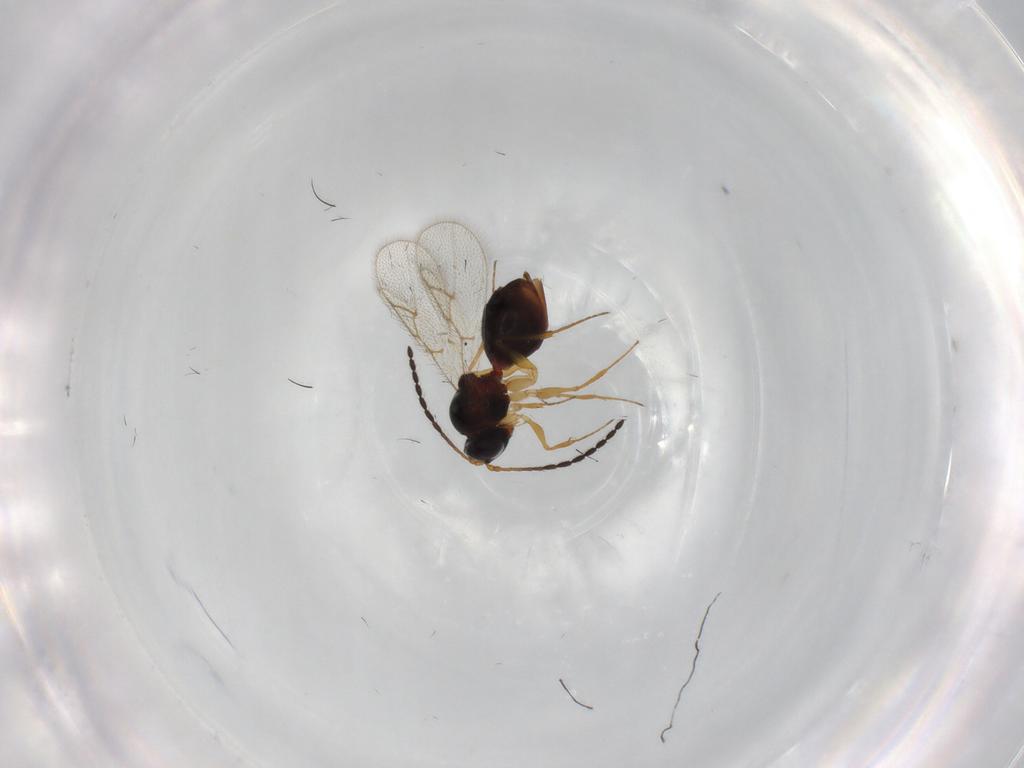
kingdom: Animalia
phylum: Arthropoda
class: Insecta
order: Hymenoptera
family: Figitidae
